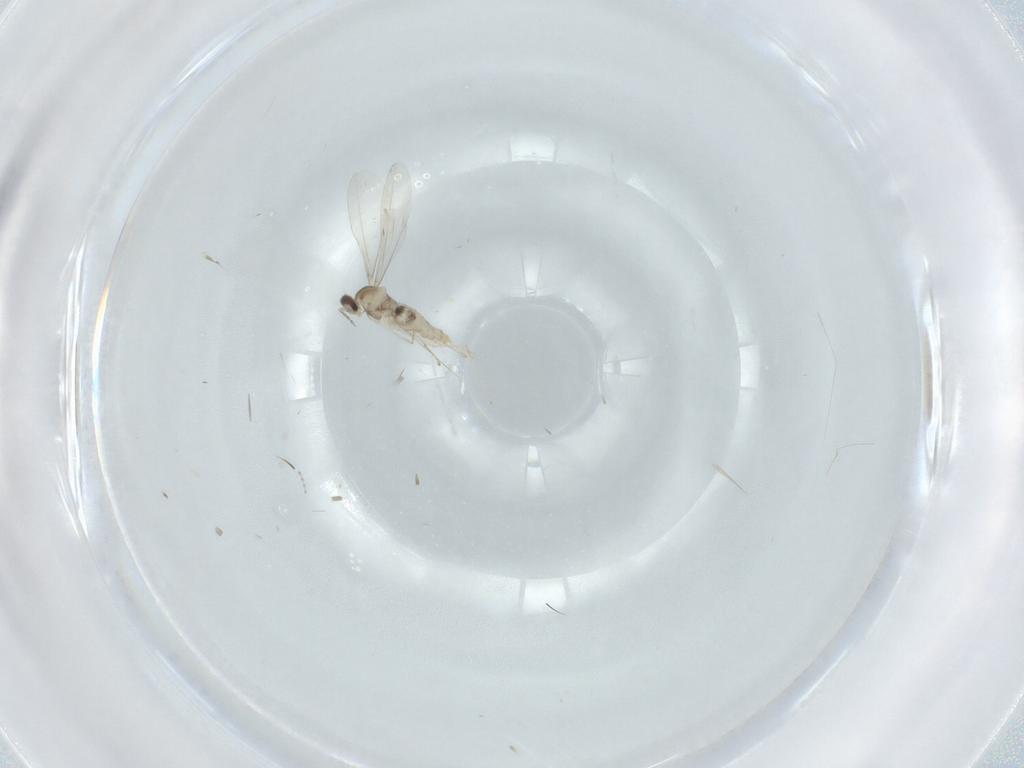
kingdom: Animalia
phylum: Arthropoda
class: Insecta
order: Diptera
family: Cecidomyiidae
